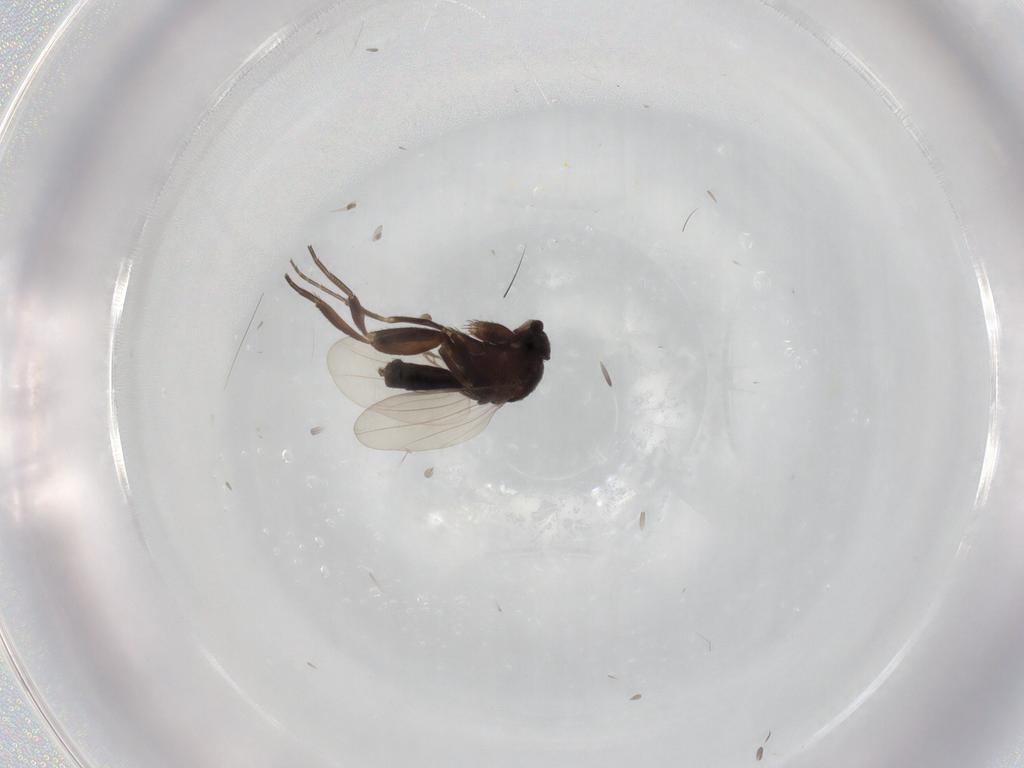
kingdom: Animalia
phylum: Arthropoda
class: Insecta
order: Diptera
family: Phoridae
